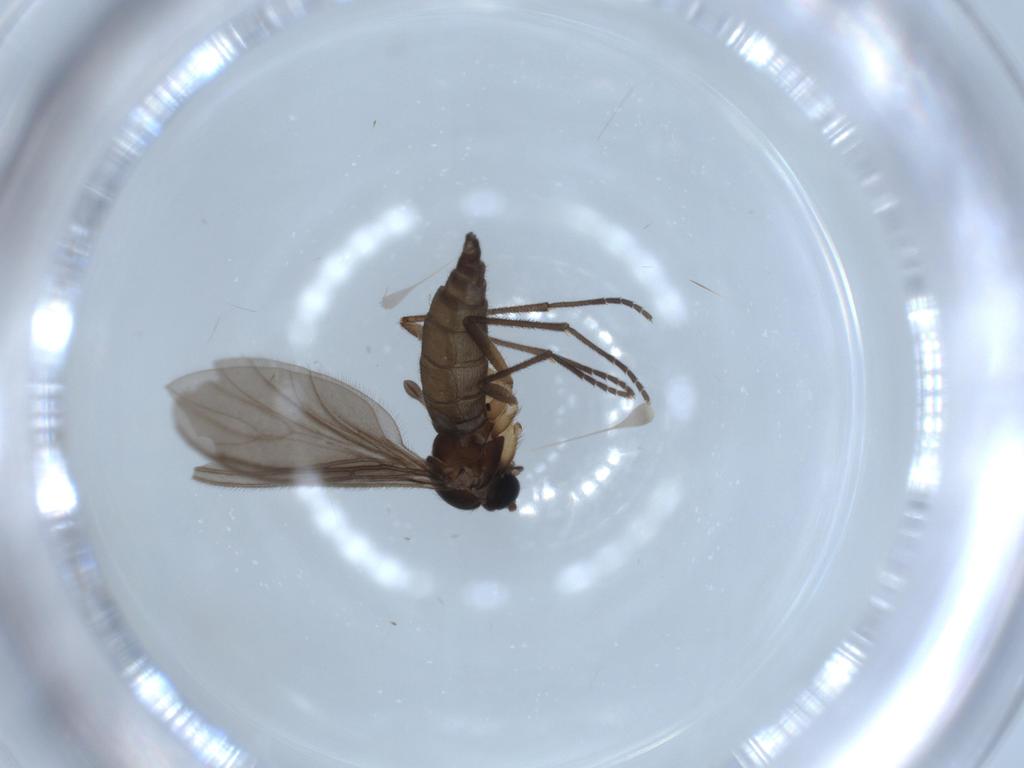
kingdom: Animalia
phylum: Arthropoda
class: Insecta
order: Diptera
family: Sciaridae
